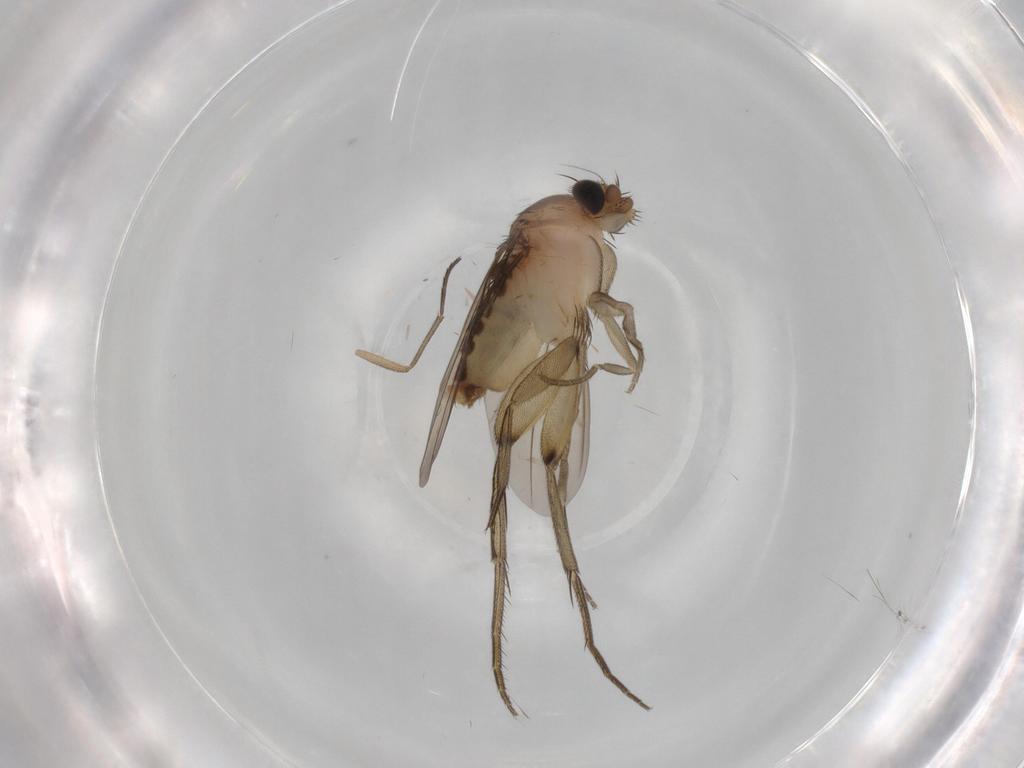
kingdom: Animalia
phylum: Arthropoda
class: Insecta
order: Diptera
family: Phoridae
